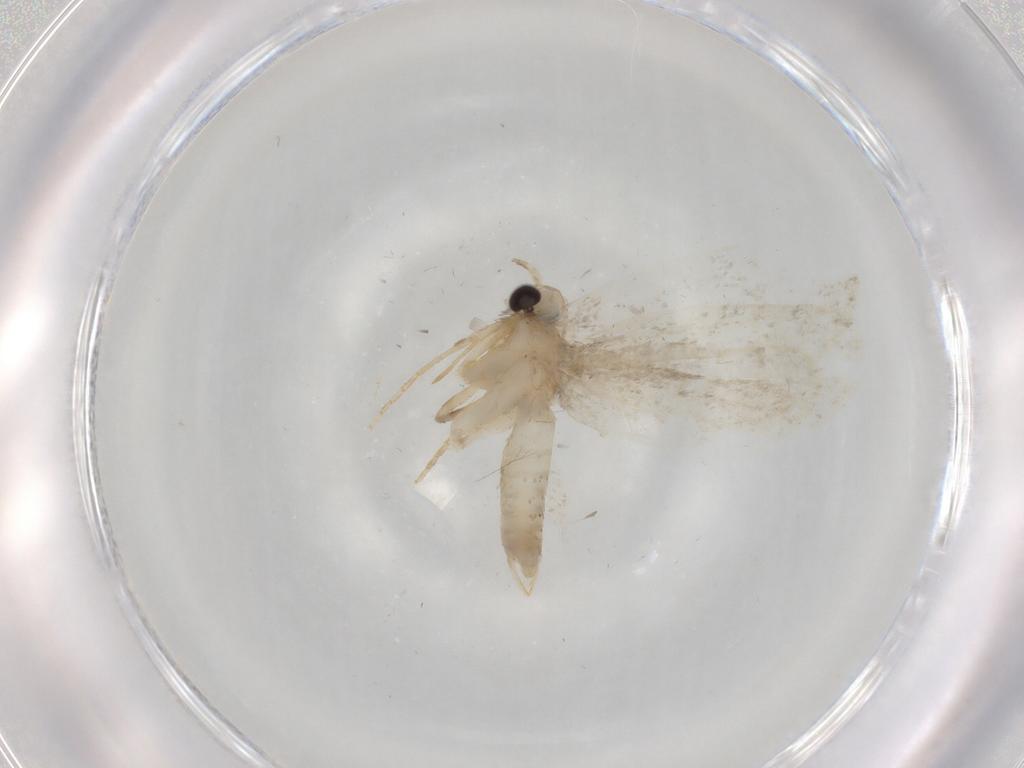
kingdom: Animalia
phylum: Arthropoda
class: Insecta
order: Lepidoptera
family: Psychidae
